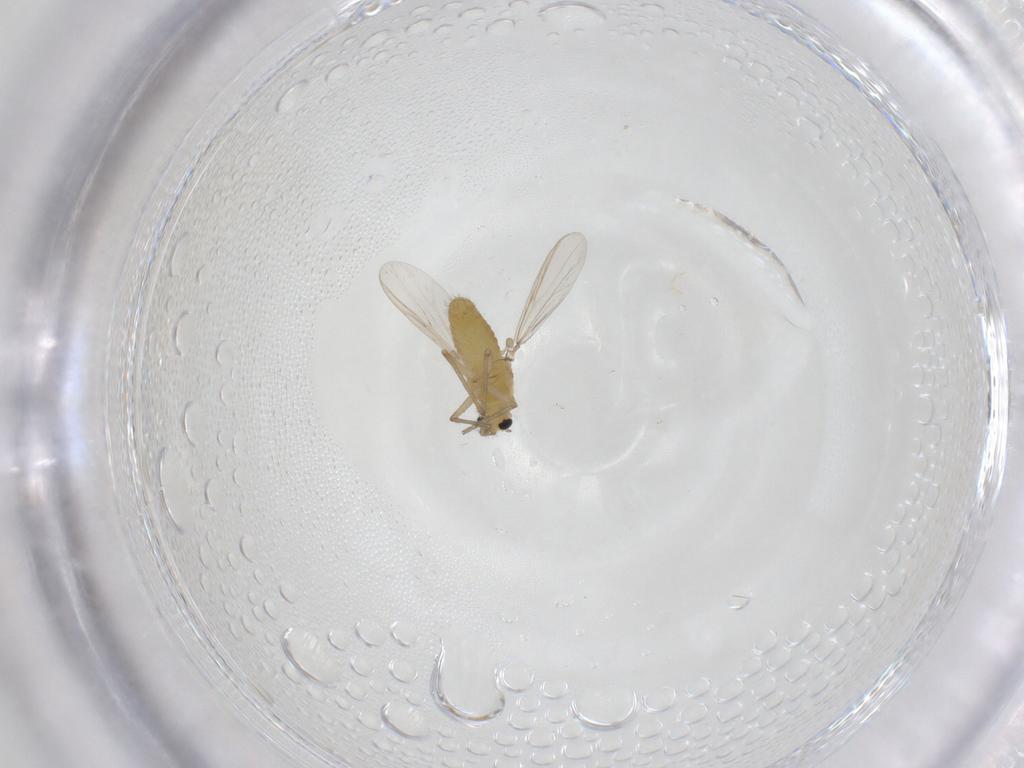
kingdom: Animalia
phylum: Arthropoda
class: Insecta
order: Diptera
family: Chironomidae
